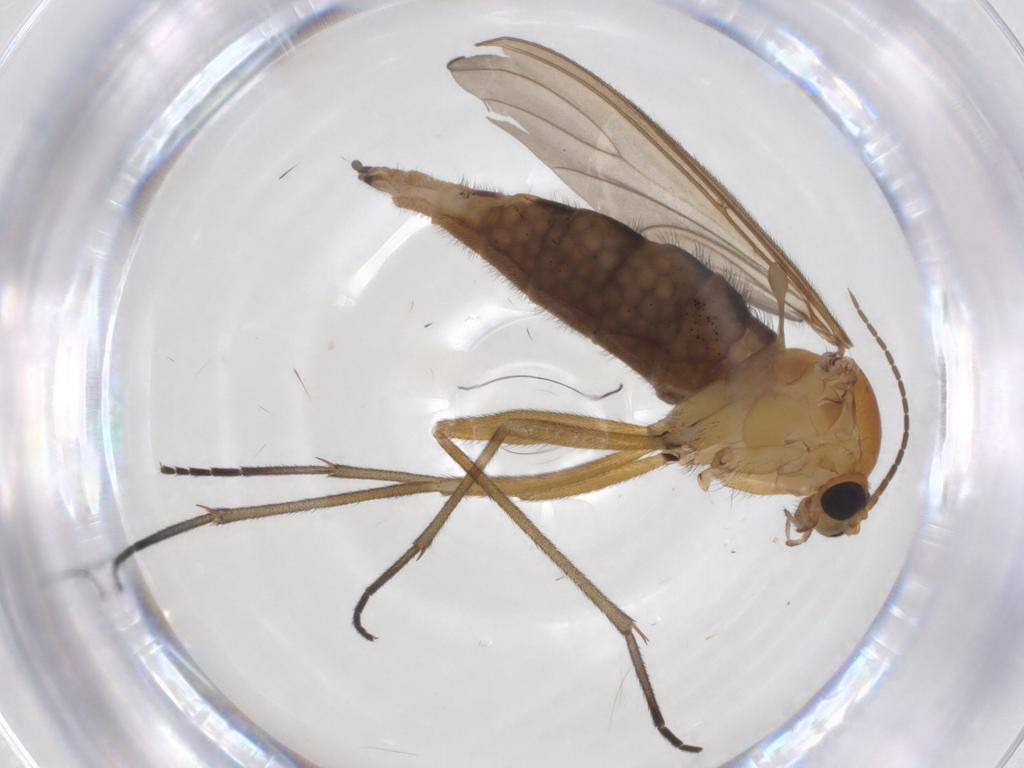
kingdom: Animalia
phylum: Arthropoda
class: Insecta
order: Diptera
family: Sciaridae
